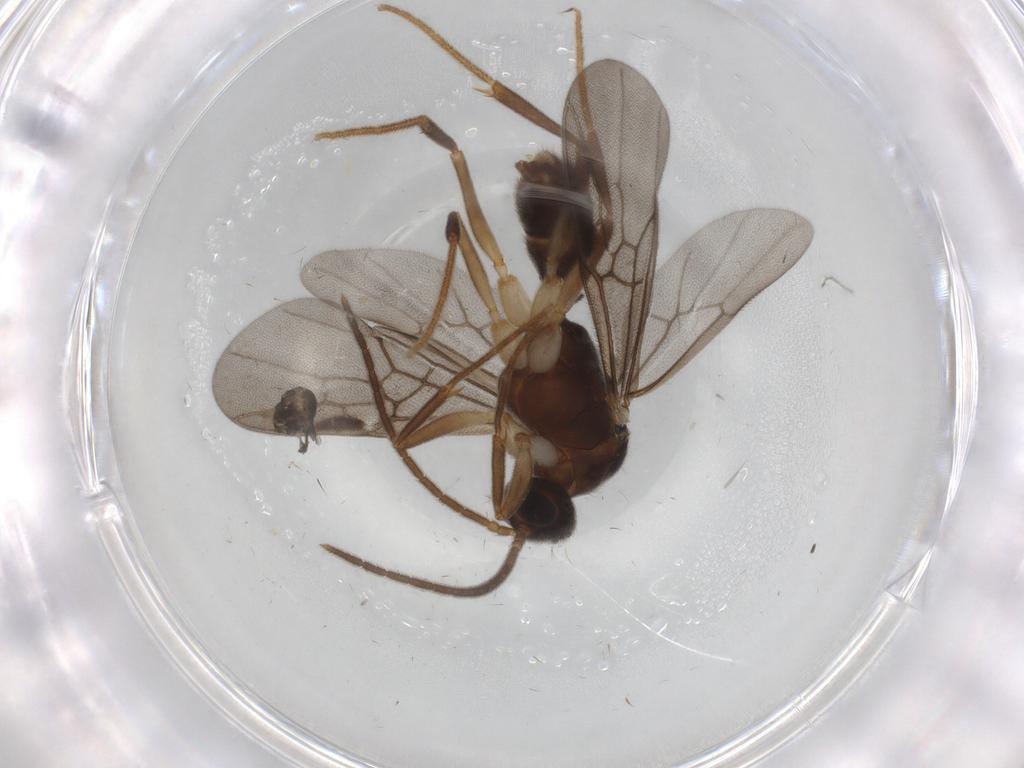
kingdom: Animalia
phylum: Arthropoda
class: Insecta
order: Hymenoptera
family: Formicidae
